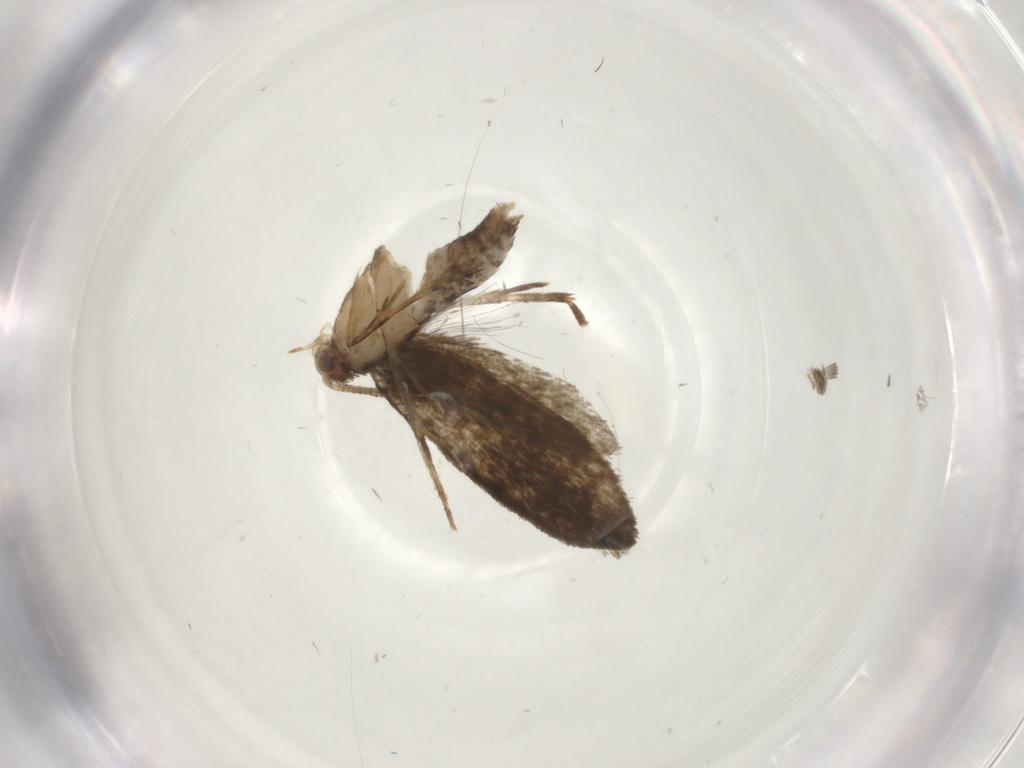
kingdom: Animalia
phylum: Arthropoda
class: Insecta
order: Lepidoptera
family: Tineidae
